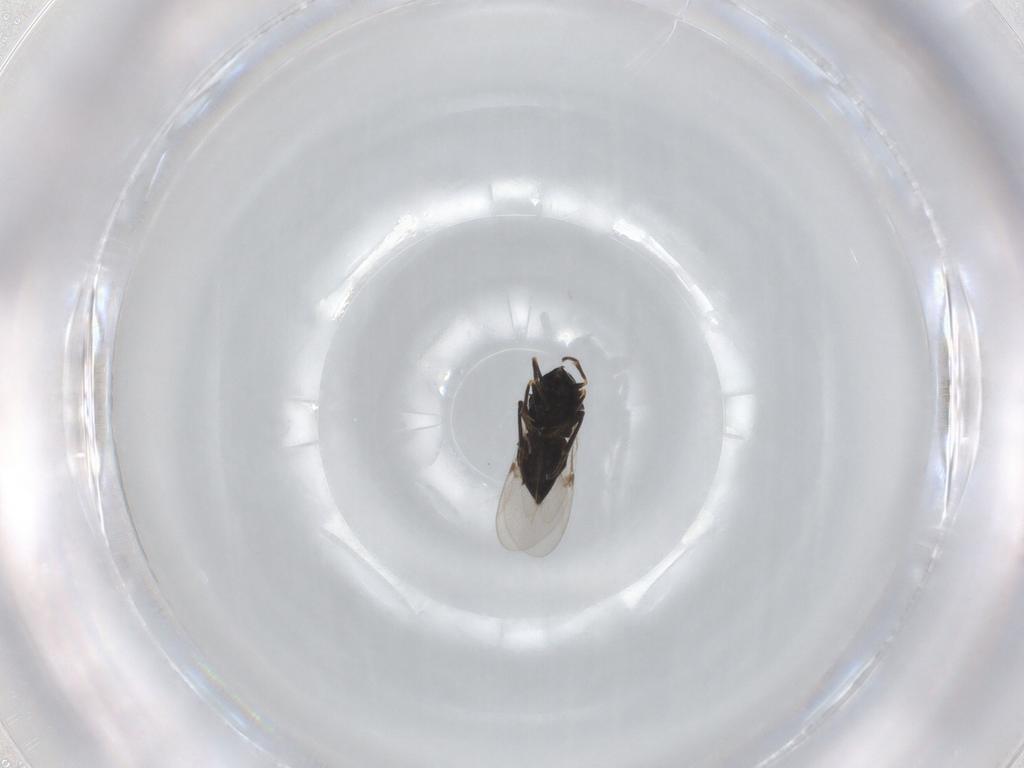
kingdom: Animalia
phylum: Arthropoda
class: Insecta
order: Hymenoptera
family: Encyrtidae
